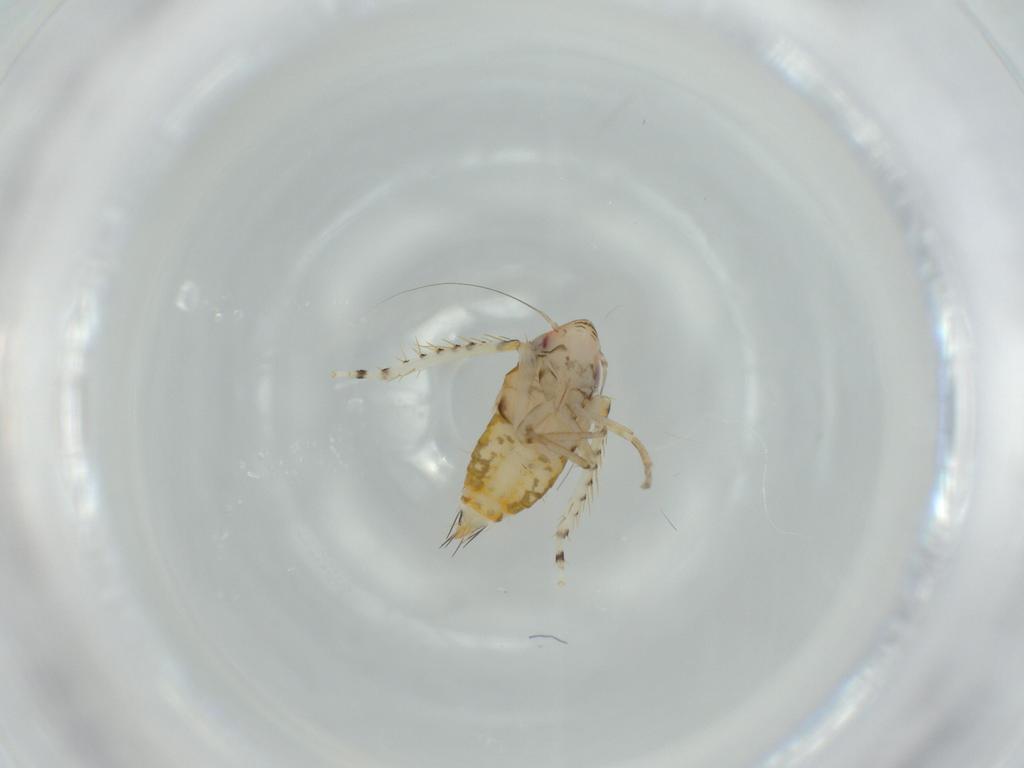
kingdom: Animalia
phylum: Arthropoda
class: Insecta
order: Hemiptera
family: Cicadellidae
